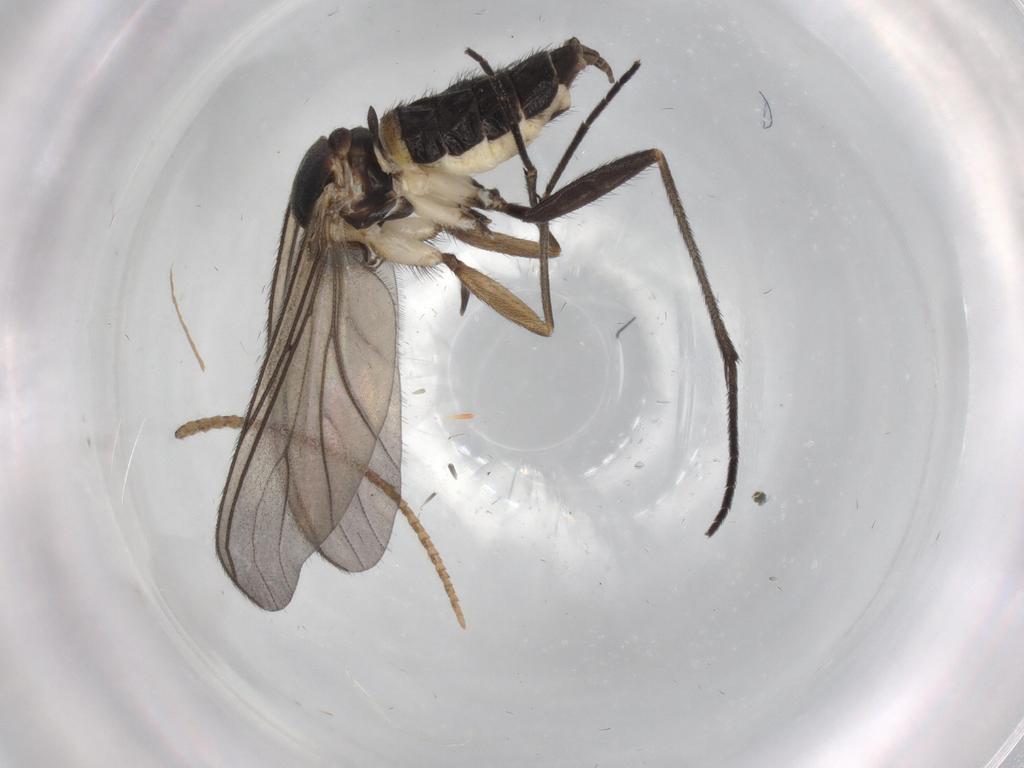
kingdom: Animalia
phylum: Arthropoda
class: Insecta
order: Diptera
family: Sciaridae
